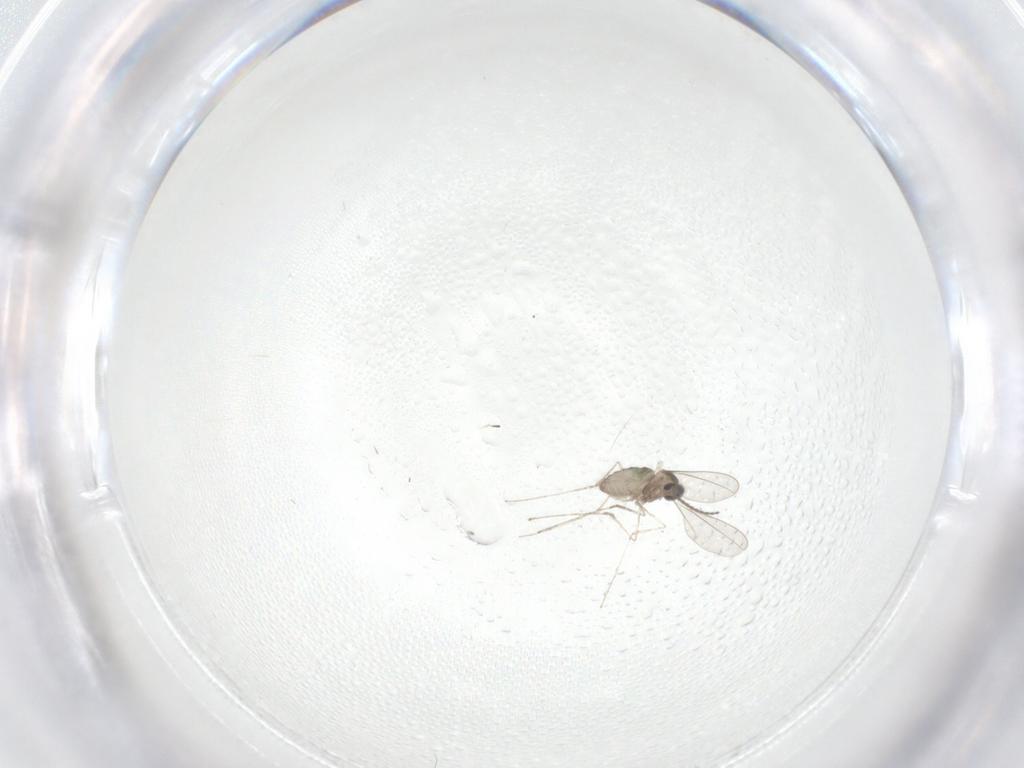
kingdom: Animalia
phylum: Arthropoda
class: Insecta
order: Diptera
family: Cecidomyiidae
